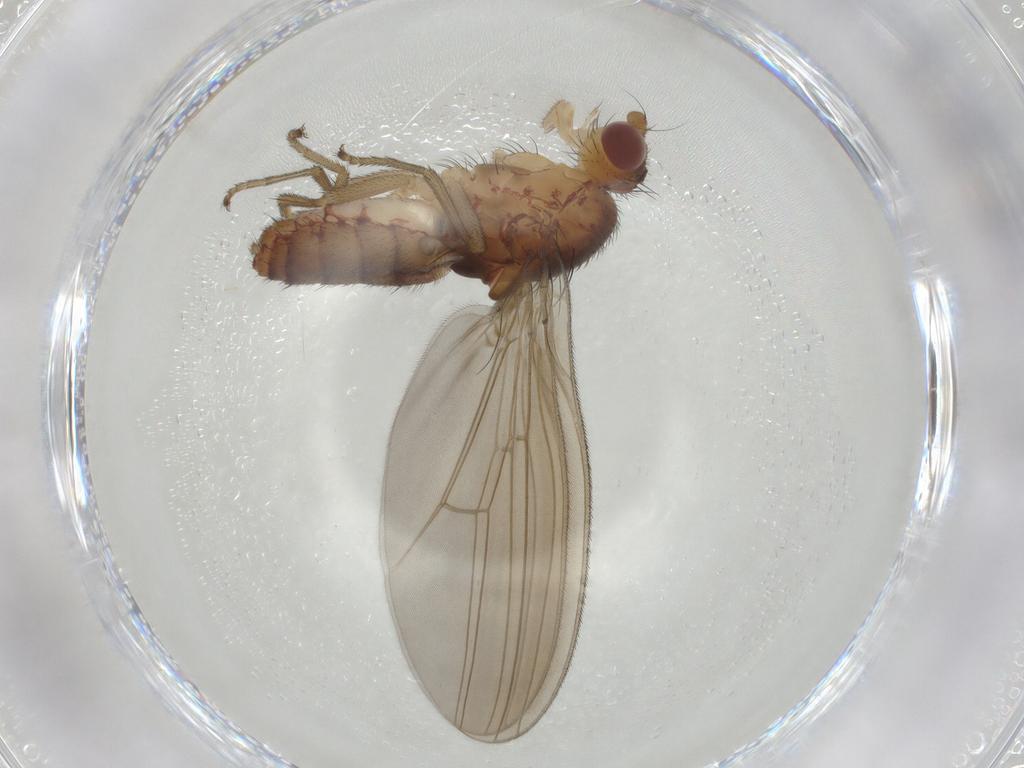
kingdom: Animalia
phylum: Arthropoda
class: Insecta
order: Diptera
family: Natalimyzidae
